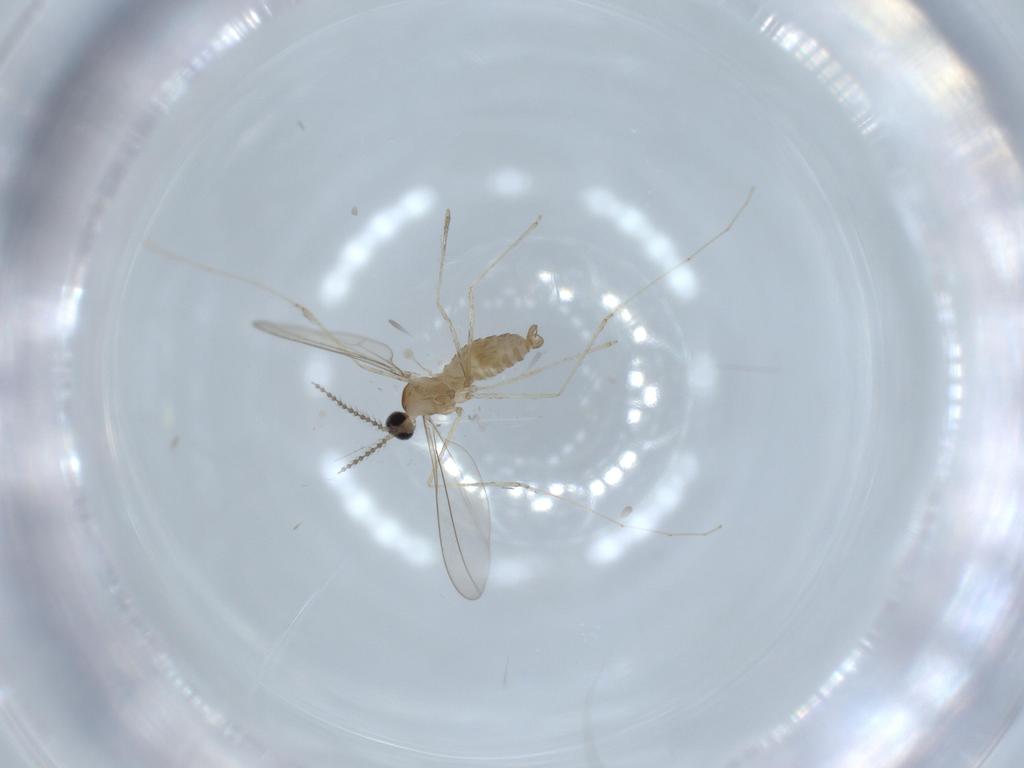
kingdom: Animalia
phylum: Arthropoda
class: Insecta
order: Diptera
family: Cecidomyiidae
